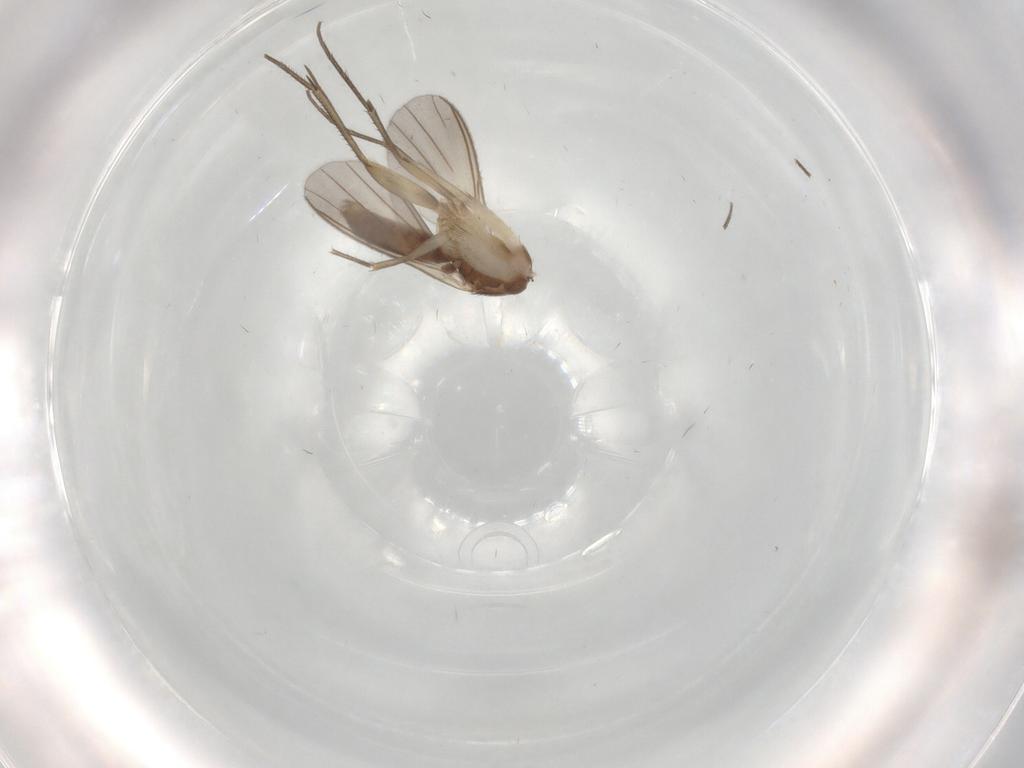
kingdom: Animalia
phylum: Arthropoda
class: Insecta
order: Diptera
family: Mycetophilidae
